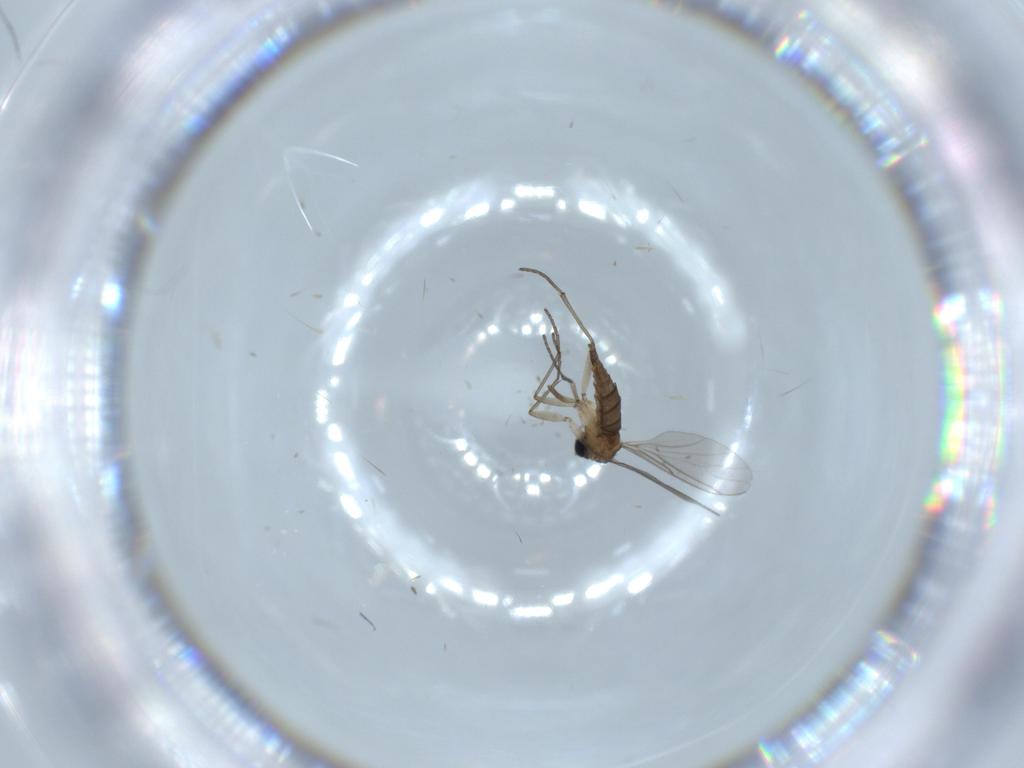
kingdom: Animalia
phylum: Arthropoda
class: Insecta
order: Diptera
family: Sciaridae
